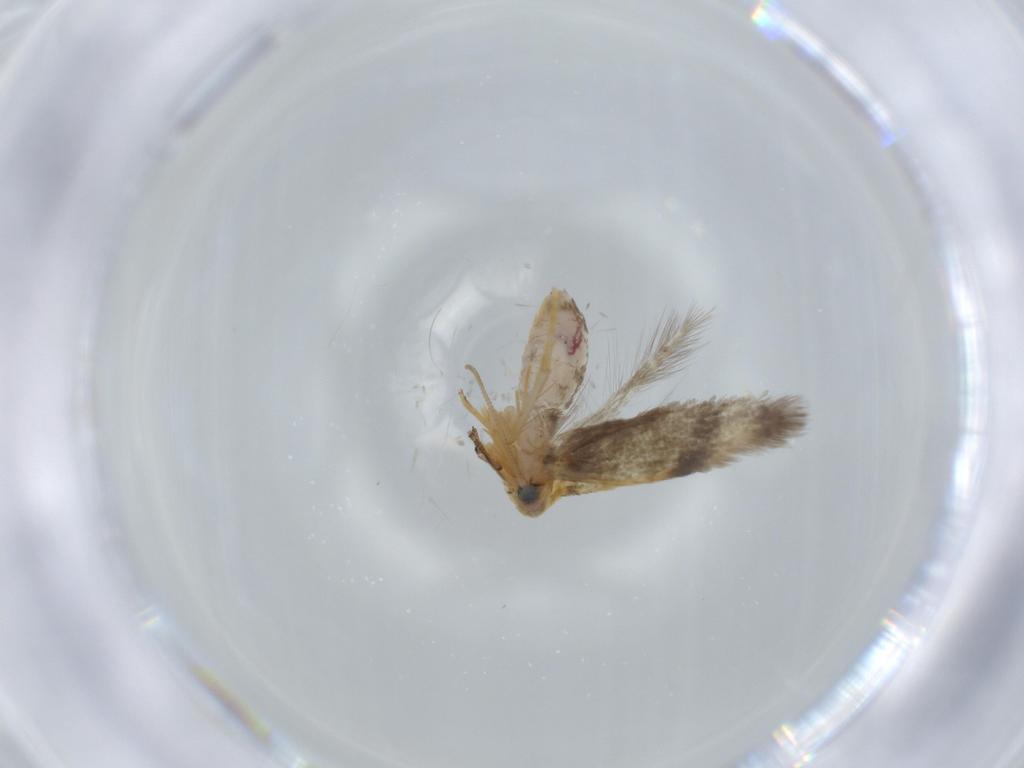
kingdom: Animalia
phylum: Arthropoda
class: Insecta
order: Lepidoptera
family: Nepticulidae
